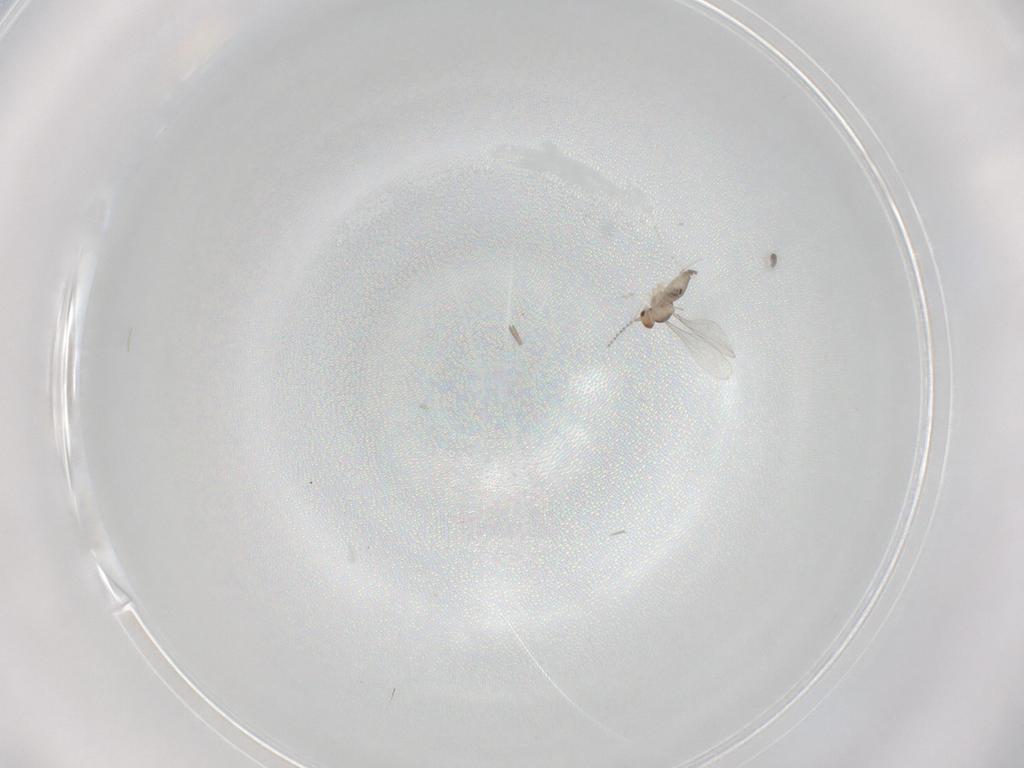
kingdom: Animalia
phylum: Arthropoda
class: Insecta
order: Diptera
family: Cecidomyiidae
